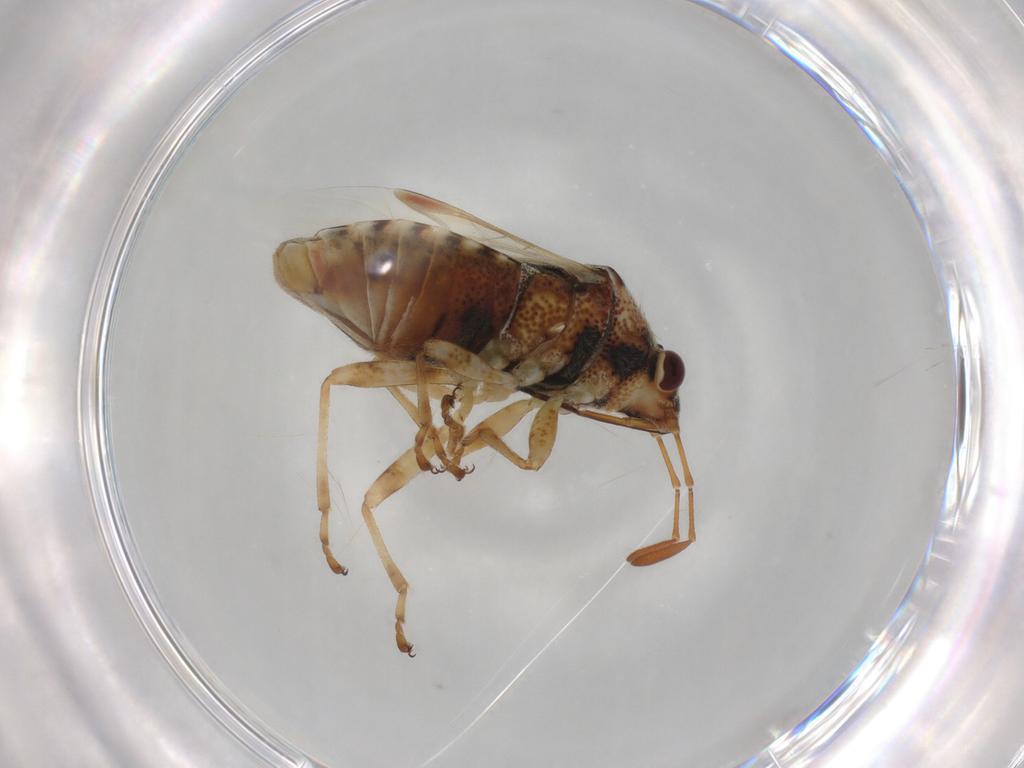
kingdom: Animalia
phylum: Arthropoda
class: Insecta
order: Hemiptera
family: Lygaeidae
